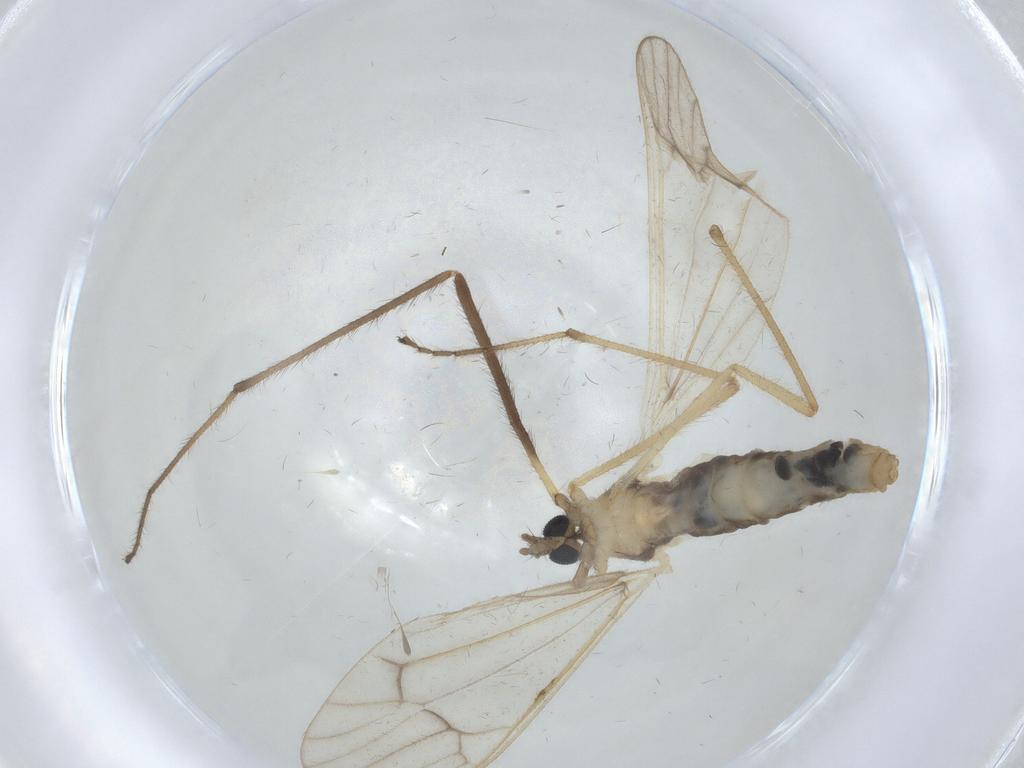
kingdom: Animalia
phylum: Arthropoda
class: Insecta
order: Diptera
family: Limoniidae
